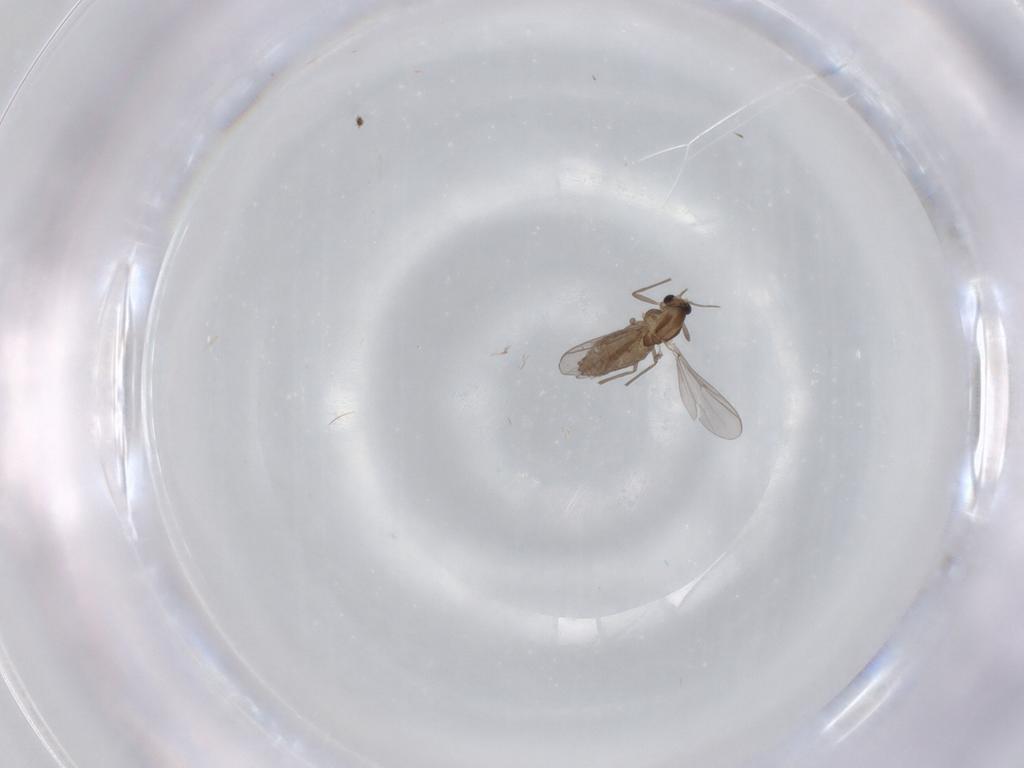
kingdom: Animalia
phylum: Arthropoda
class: Insecta
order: Diptera
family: Chironomidae
